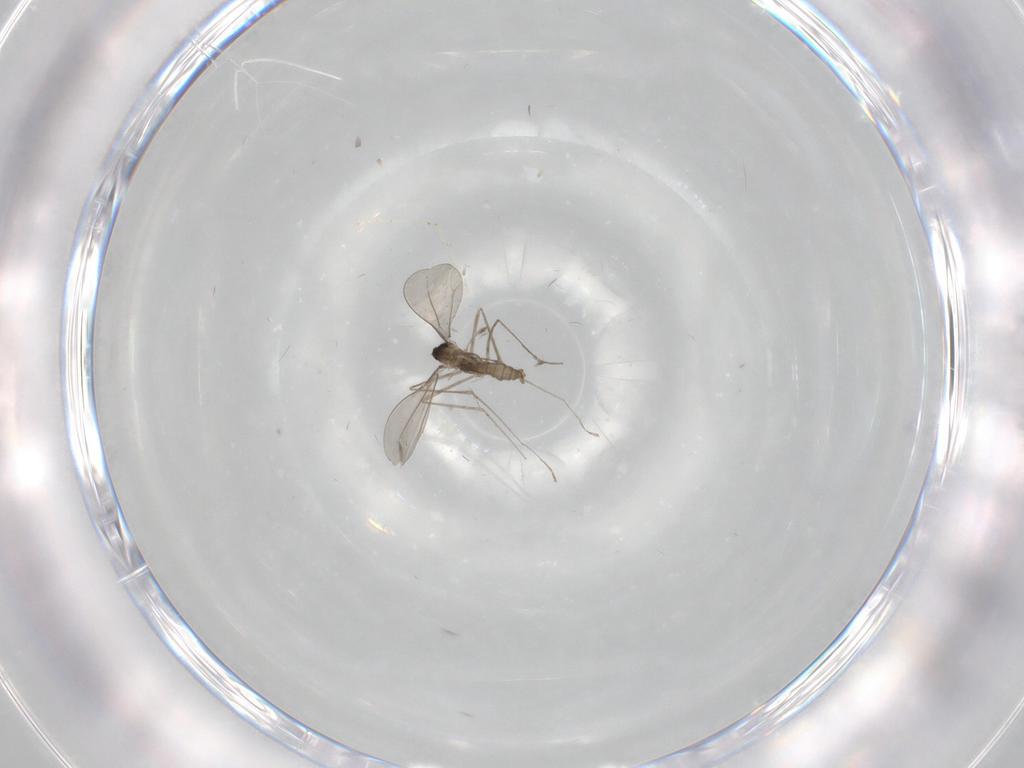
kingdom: Animalia
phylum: Arthropoda
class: Insecta
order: Diptera
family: Cecidomyiidae
